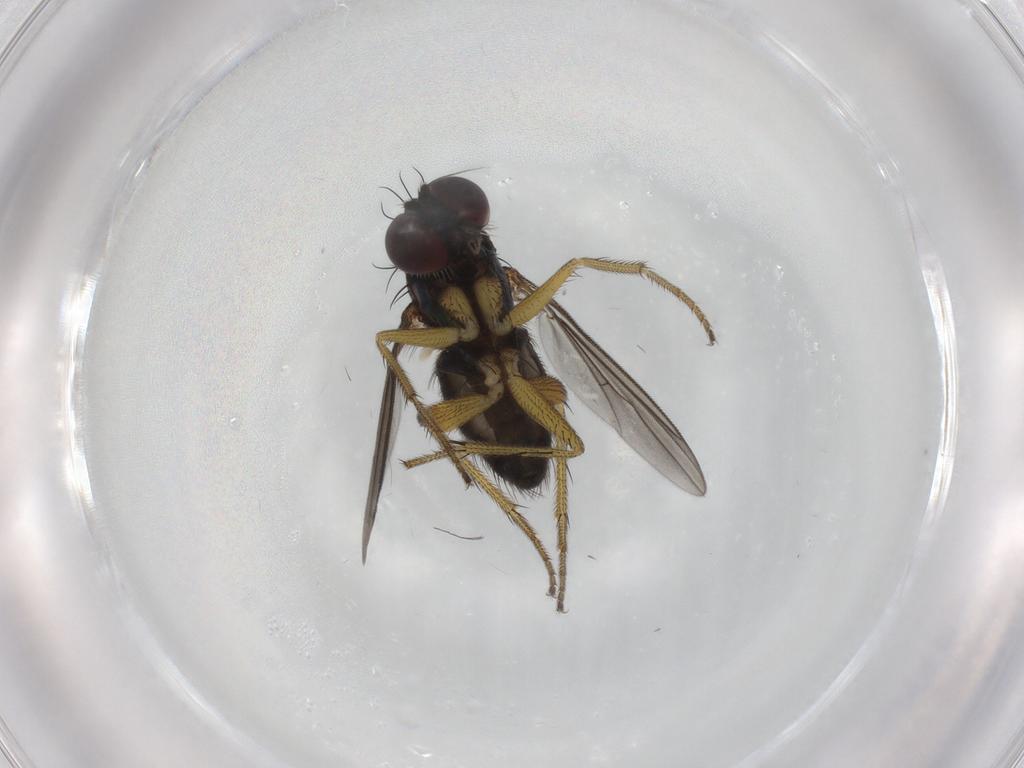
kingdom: Animalia
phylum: Arthropoda
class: Insecta
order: Diptera
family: Dolichopodidae
